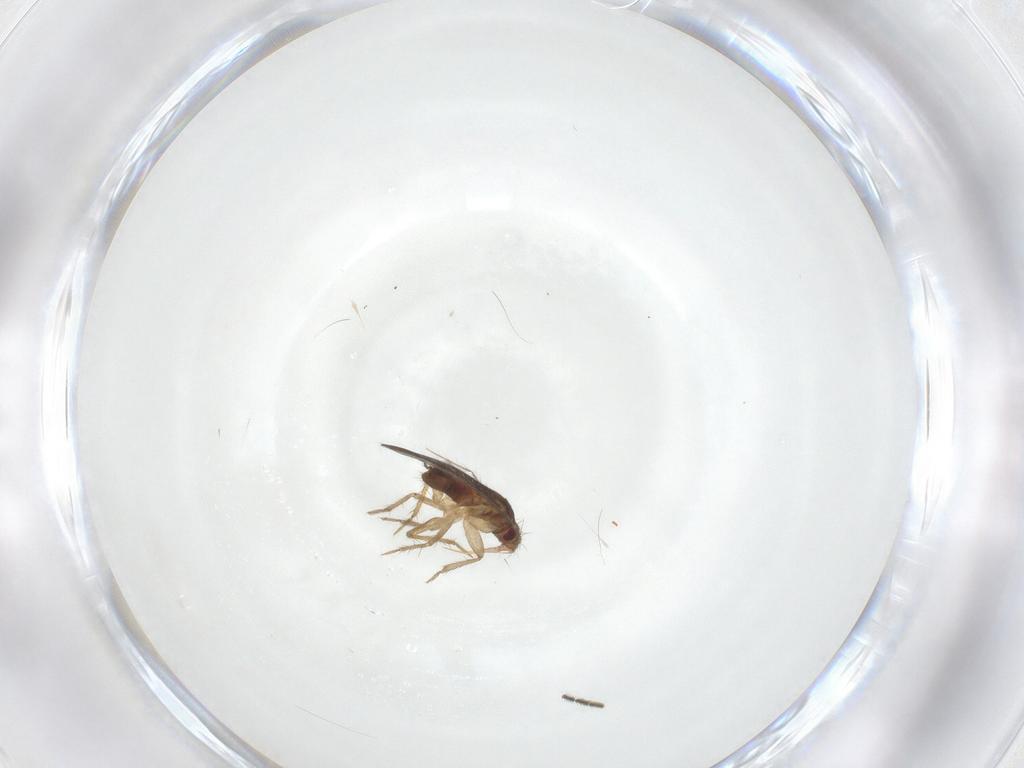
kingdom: Animalia
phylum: Arthropoda
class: Insecta
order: Hemiptera
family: Ceratocombidae
